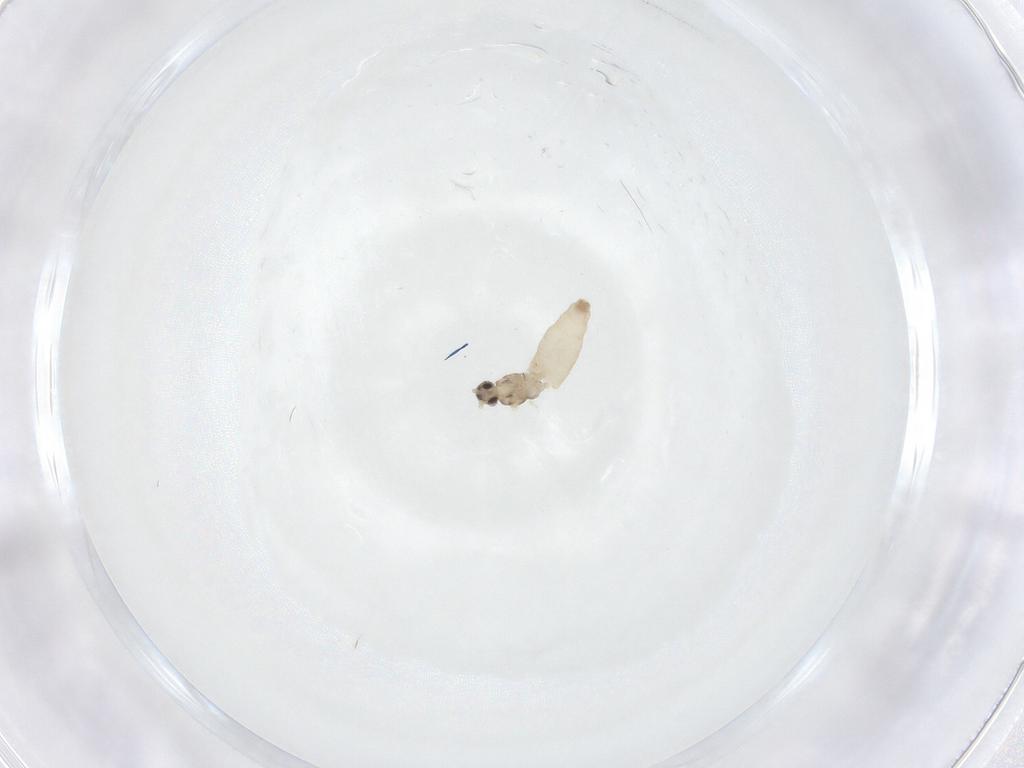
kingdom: Animalia
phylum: Arthropoda
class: Insecta
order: Diptera
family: Cecidomyiidae
